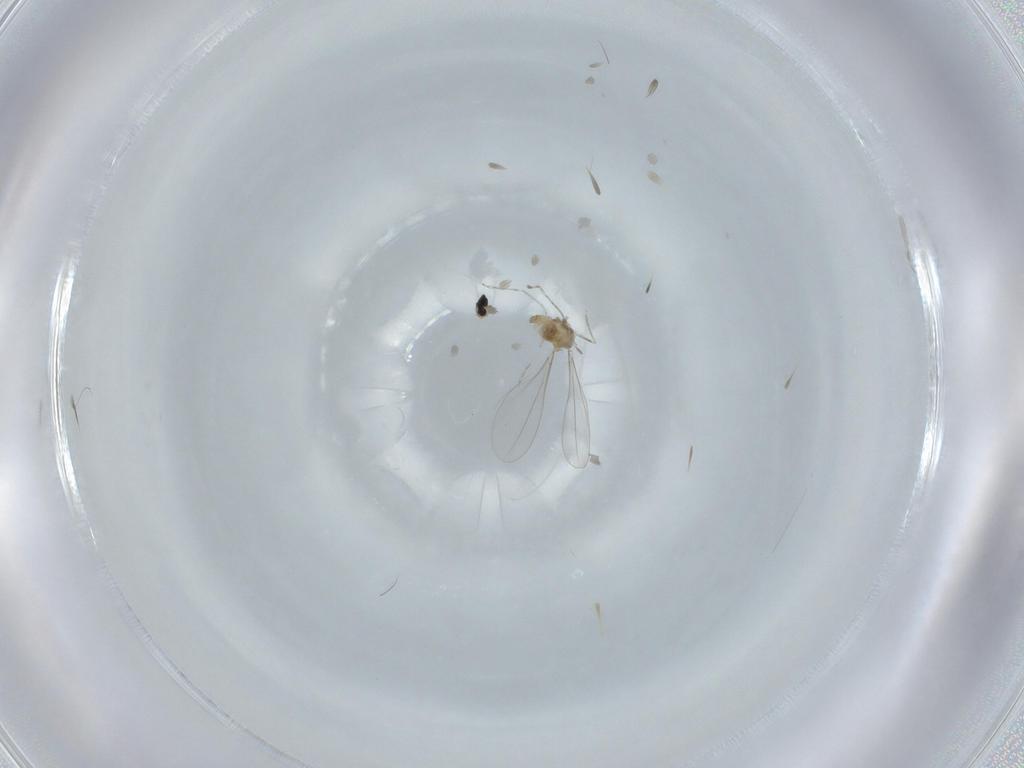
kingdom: Animalia
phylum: Arthropoda
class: Insecta
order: Diptera
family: Cecidomyiidae
